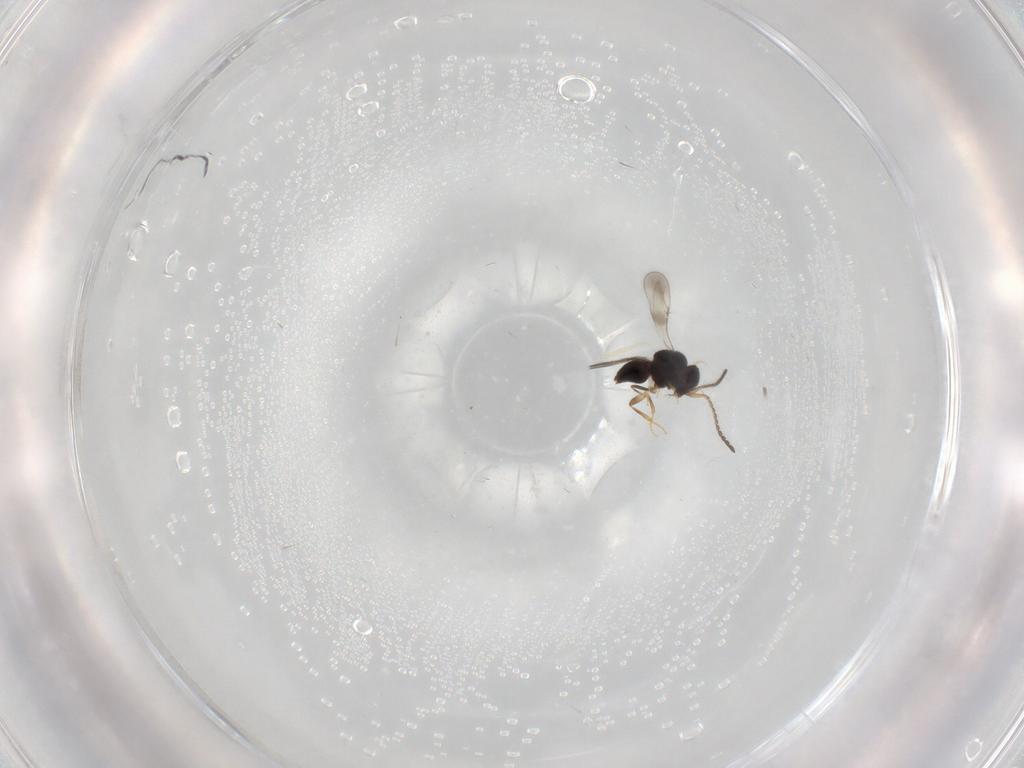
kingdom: Animalia
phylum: Arthropoda
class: Insecta
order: Hymenoptera
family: Ceraphronidae
